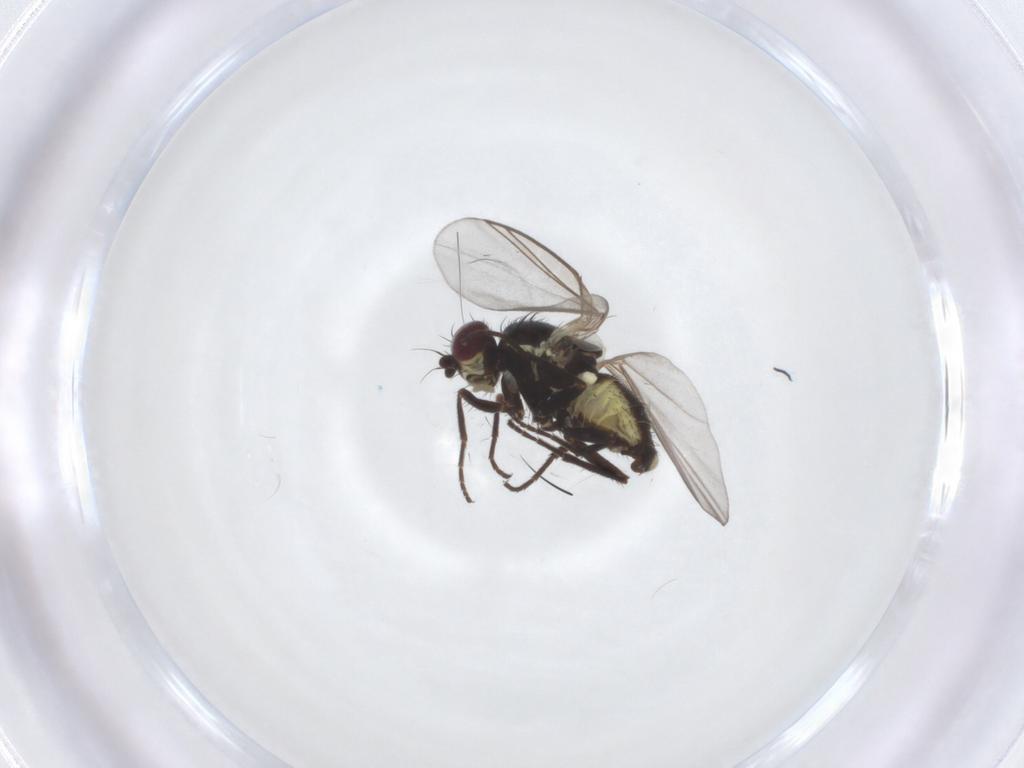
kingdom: Animalia
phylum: Arthropoda
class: Insecta
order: Diptera
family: Agromyzidae
